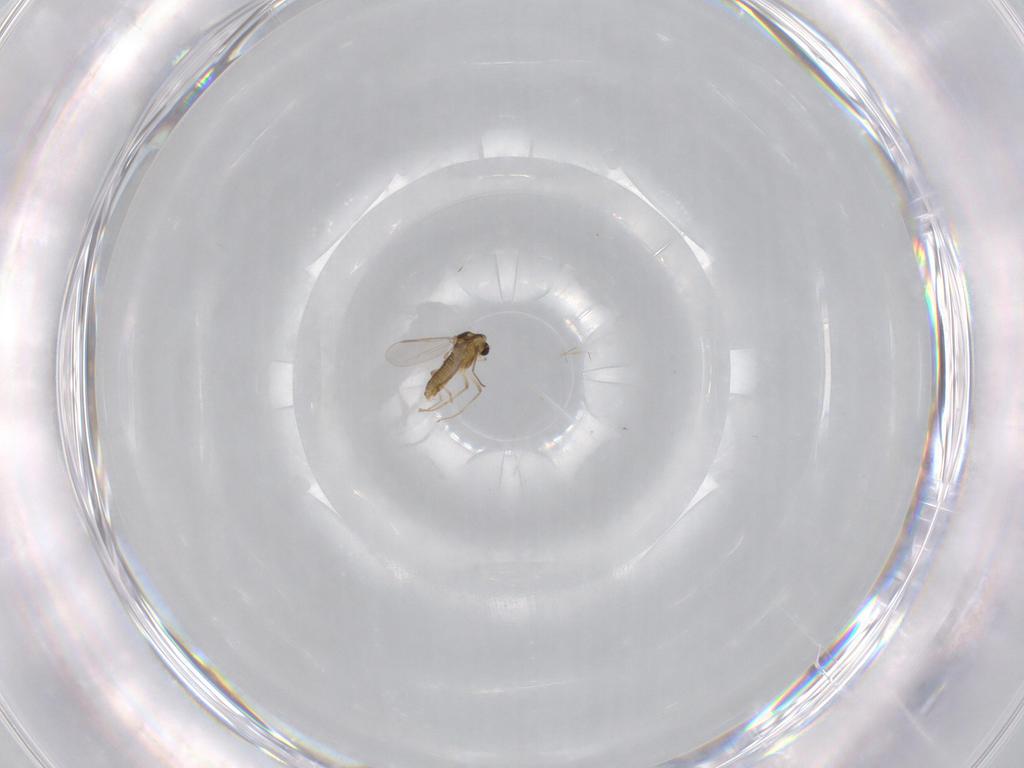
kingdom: Animalia
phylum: Arthropoda
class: Insecta
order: Diptera
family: Chironomidae
